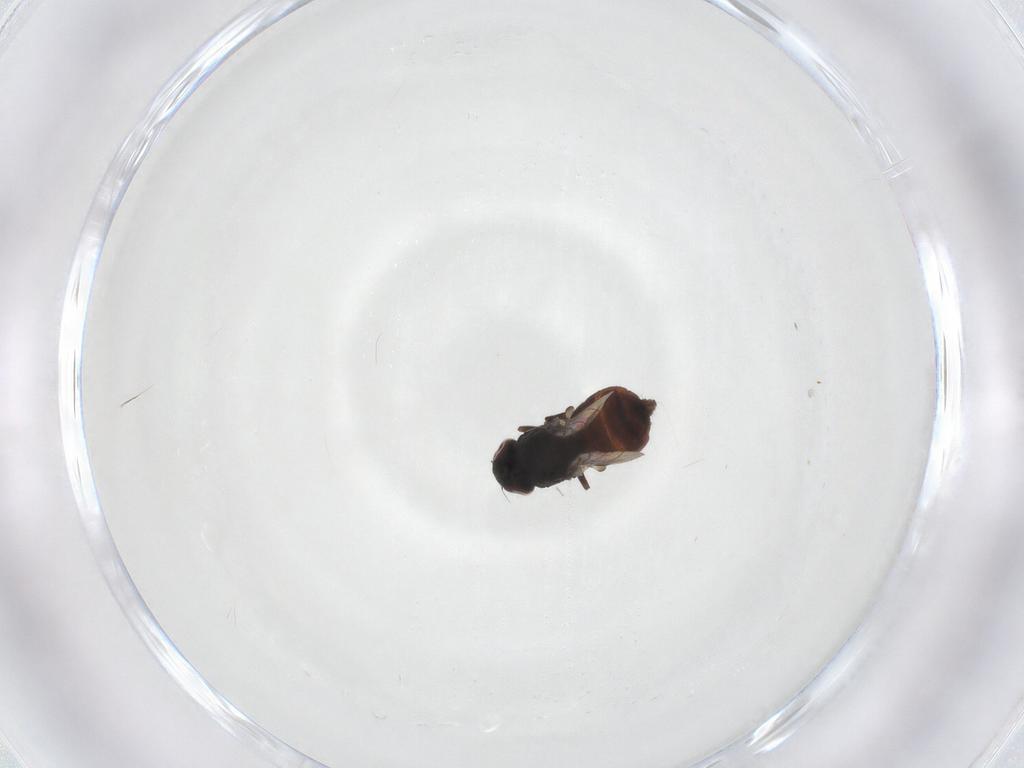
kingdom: Animalia
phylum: Arthropoda
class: Insecta
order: Diptera
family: Chloropidae
